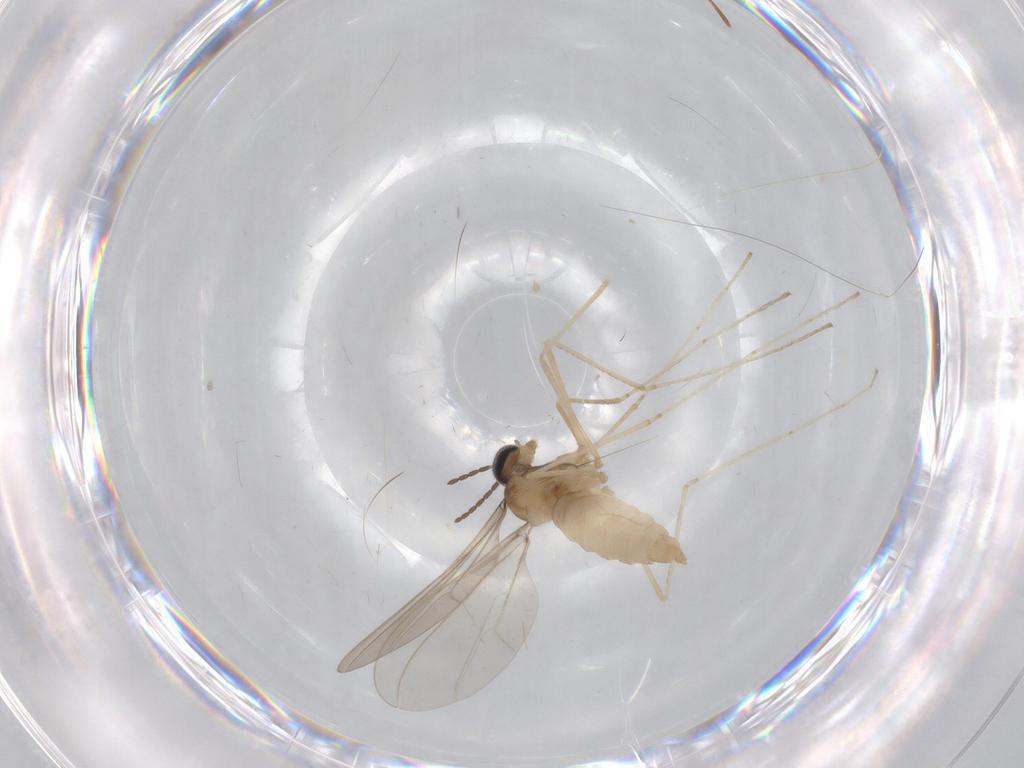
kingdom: Animalia
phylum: Arthropoda
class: Insecta
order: Diptera
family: Cecidomyiidae
